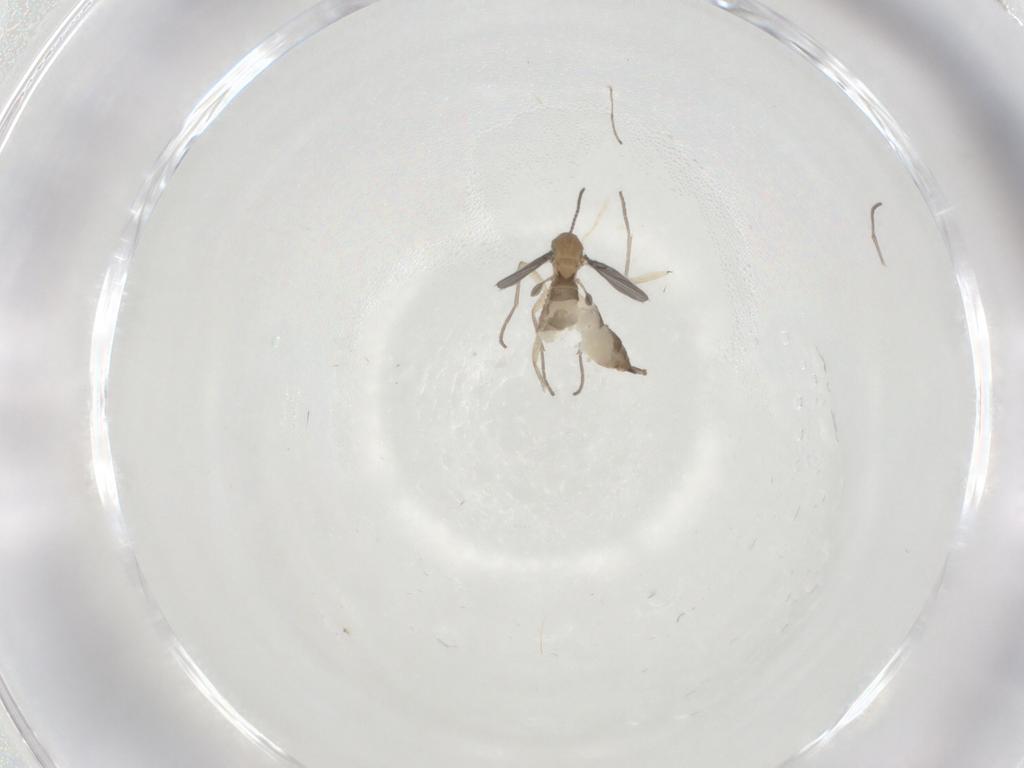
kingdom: Animalia
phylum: Arthropoda
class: Insecta
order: Diptera
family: Sciaridae
